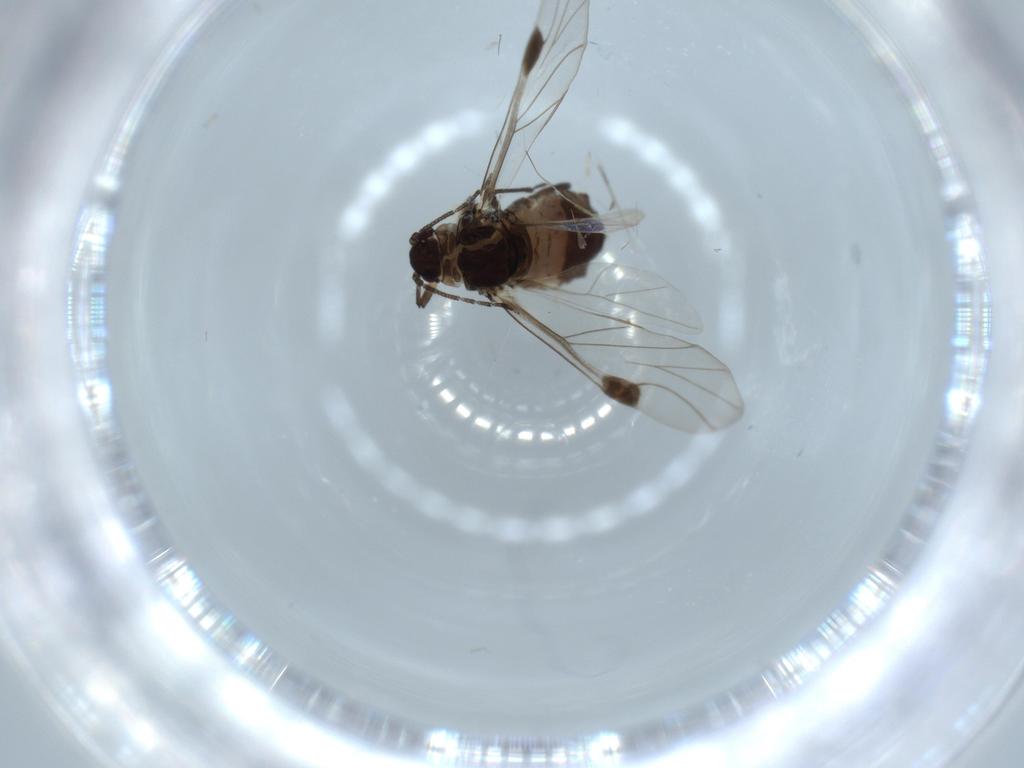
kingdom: Animalia
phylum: Arthropoda
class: Insecta
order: Hemiptera
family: Aphididae
